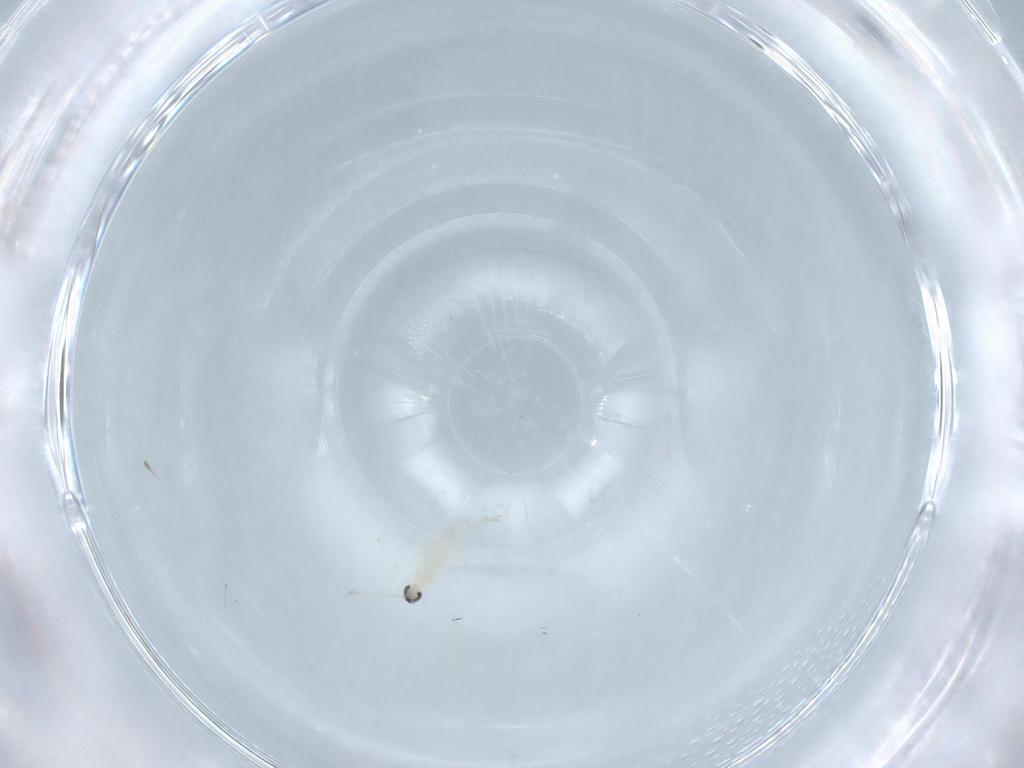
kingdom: Animalia
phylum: Arthropoda
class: Insecta
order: Diptera
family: Cecidomyiidae
